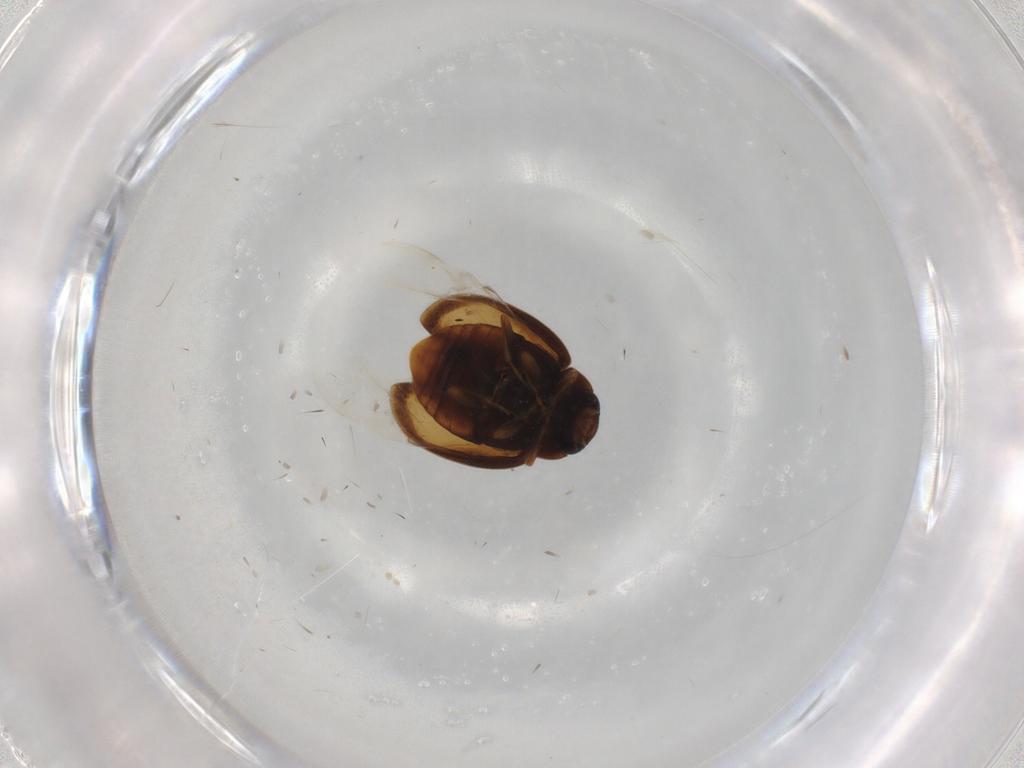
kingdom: Animalia
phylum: Arthropoda
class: Insecta
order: Coleoptera
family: Coccinellidae
